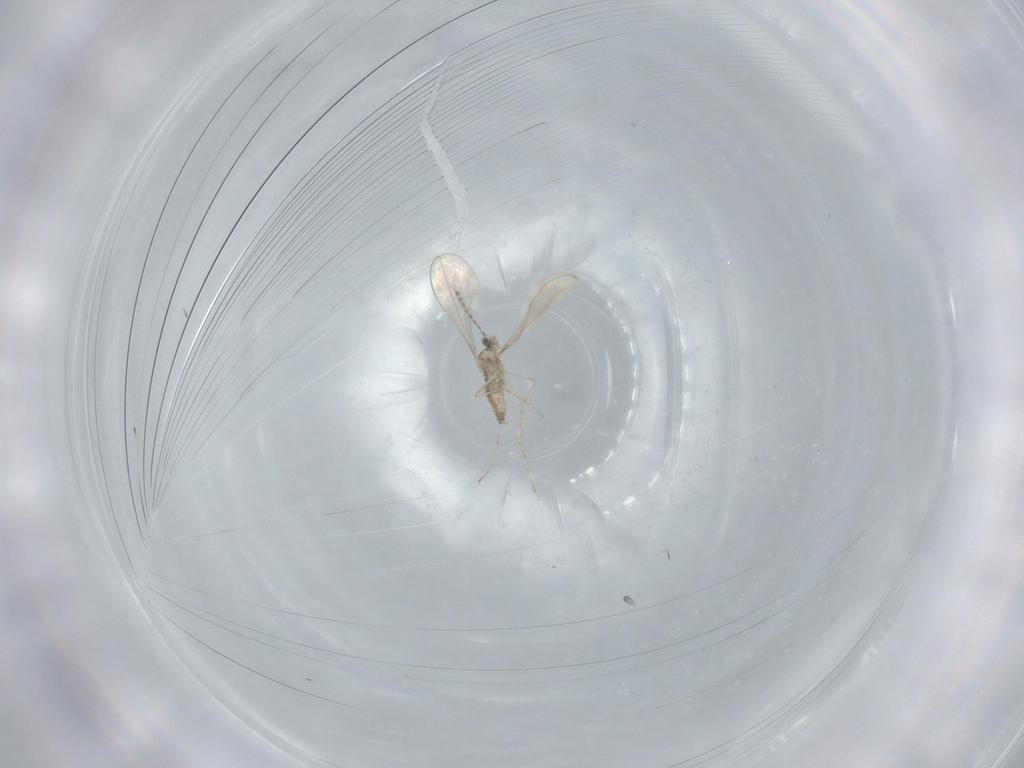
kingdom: Animalia
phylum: Arthropoda
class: Insecta
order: Diptera
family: Cecidomyiidae
